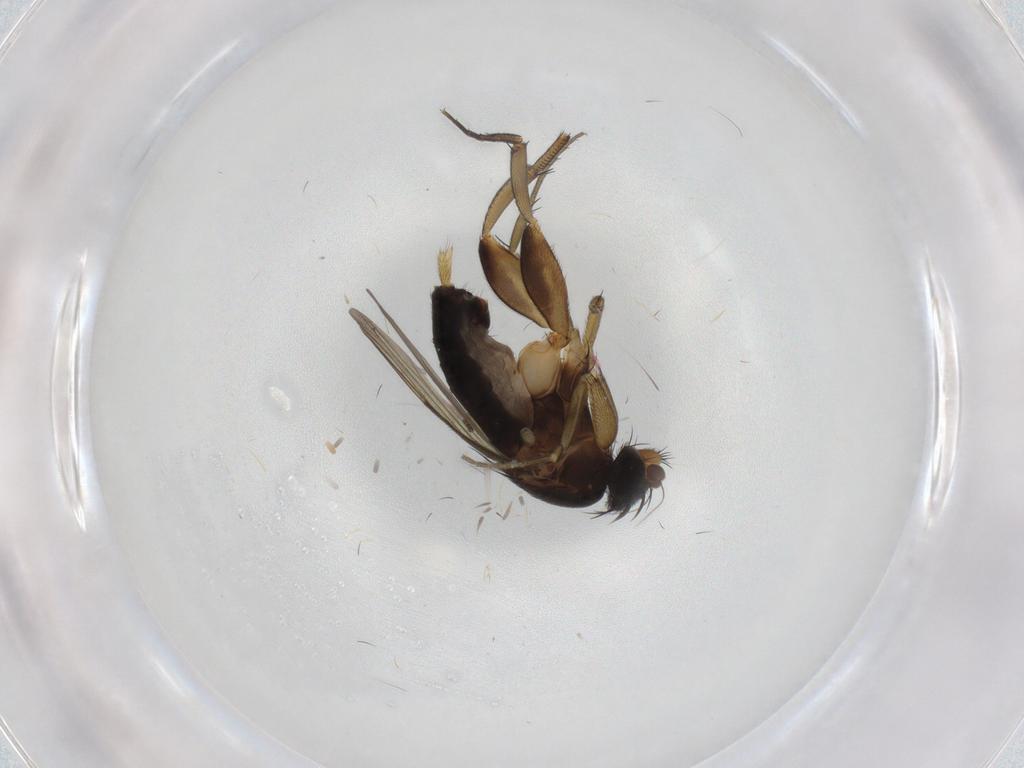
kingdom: Animalia
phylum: Arthropoda
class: Insecta
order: Diptera
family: Phoridae
